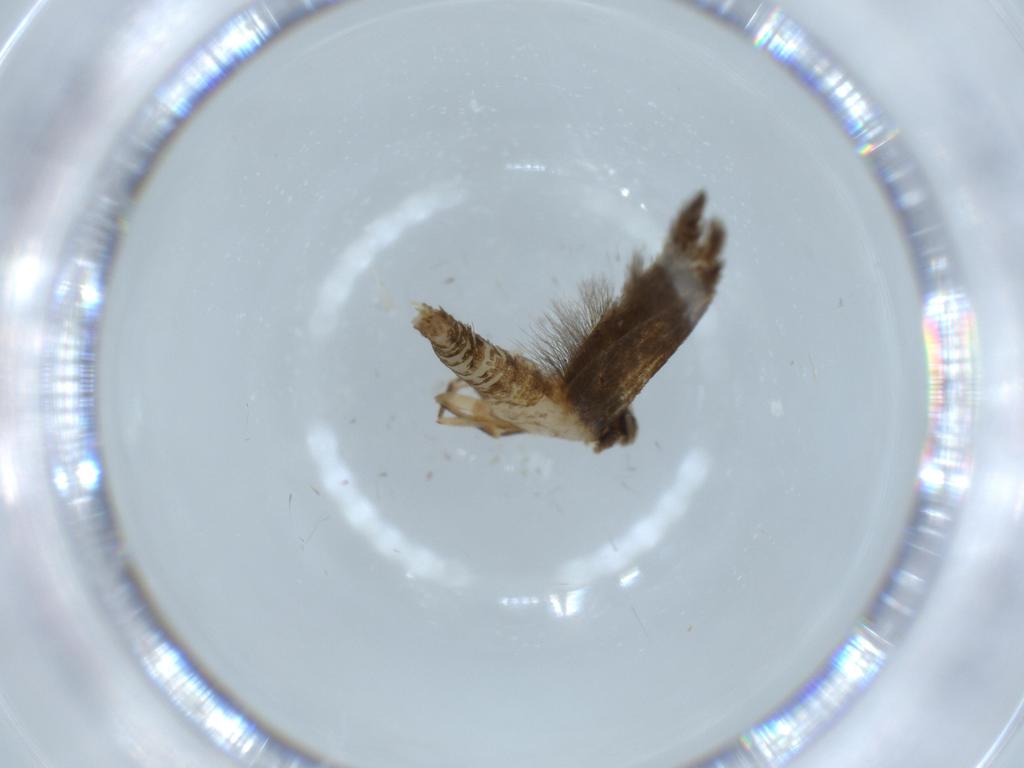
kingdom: Animalia
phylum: Arthropoda
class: Insecta
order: Lepidoptera
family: Tineidae
